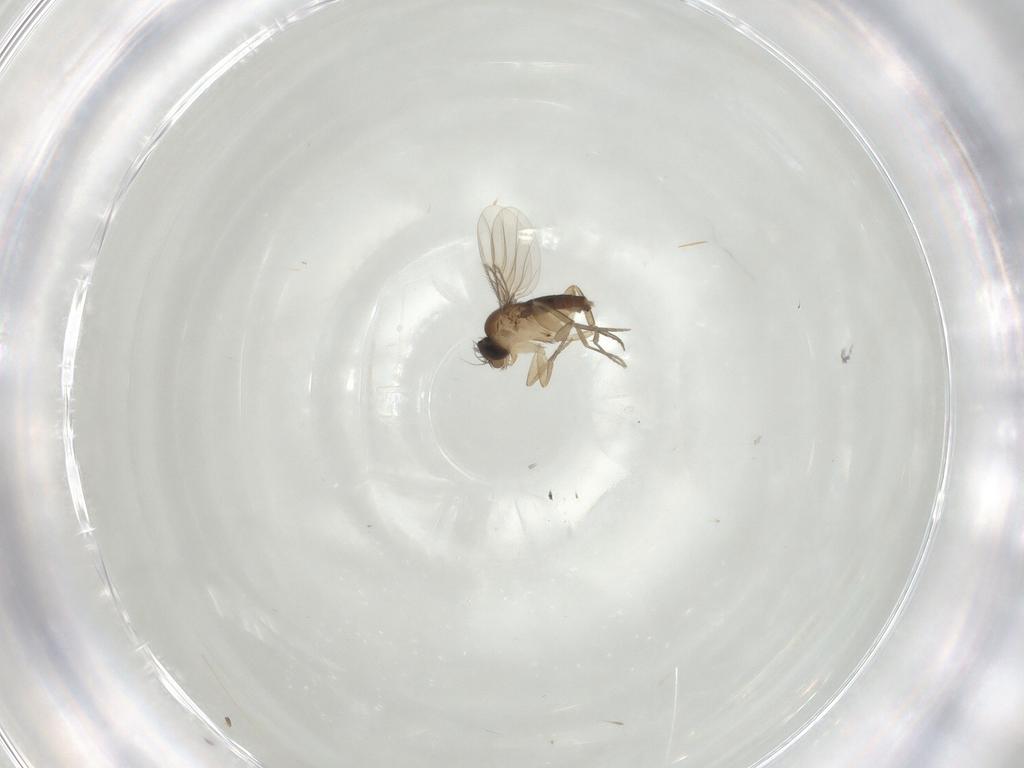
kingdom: Animalia
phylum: Arthropoda
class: Insecta
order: Diptera
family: Phoridae
